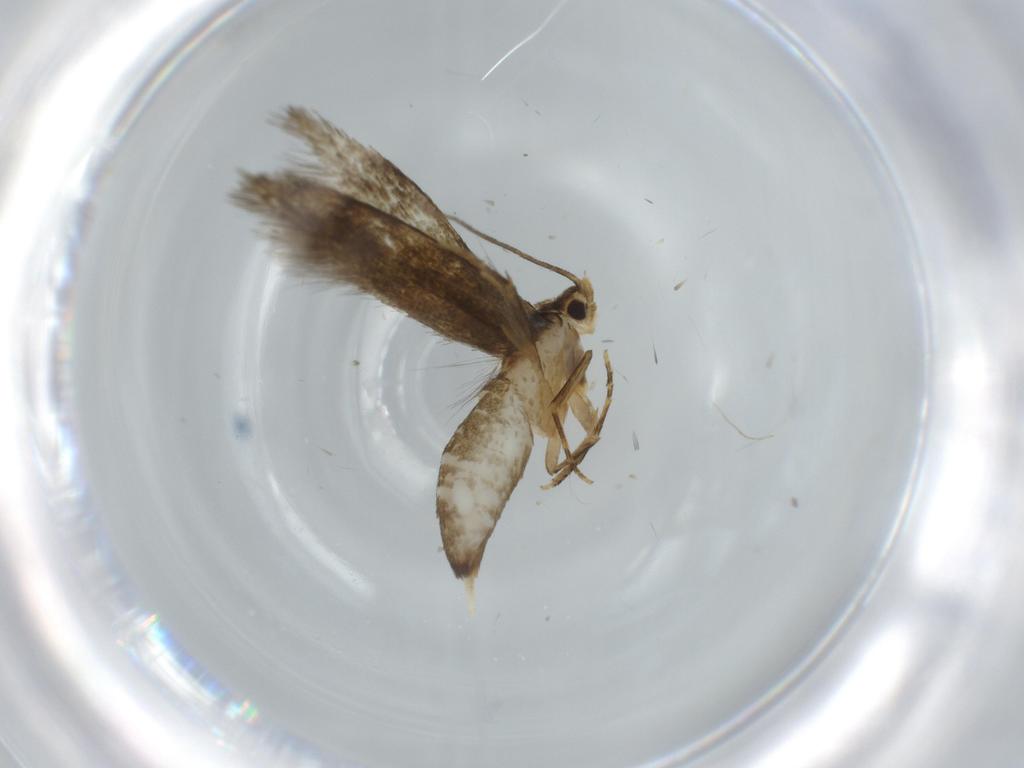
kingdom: Animalia
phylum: Arthropoda
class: Insecta
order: Lepidoptera
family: Tineidae
